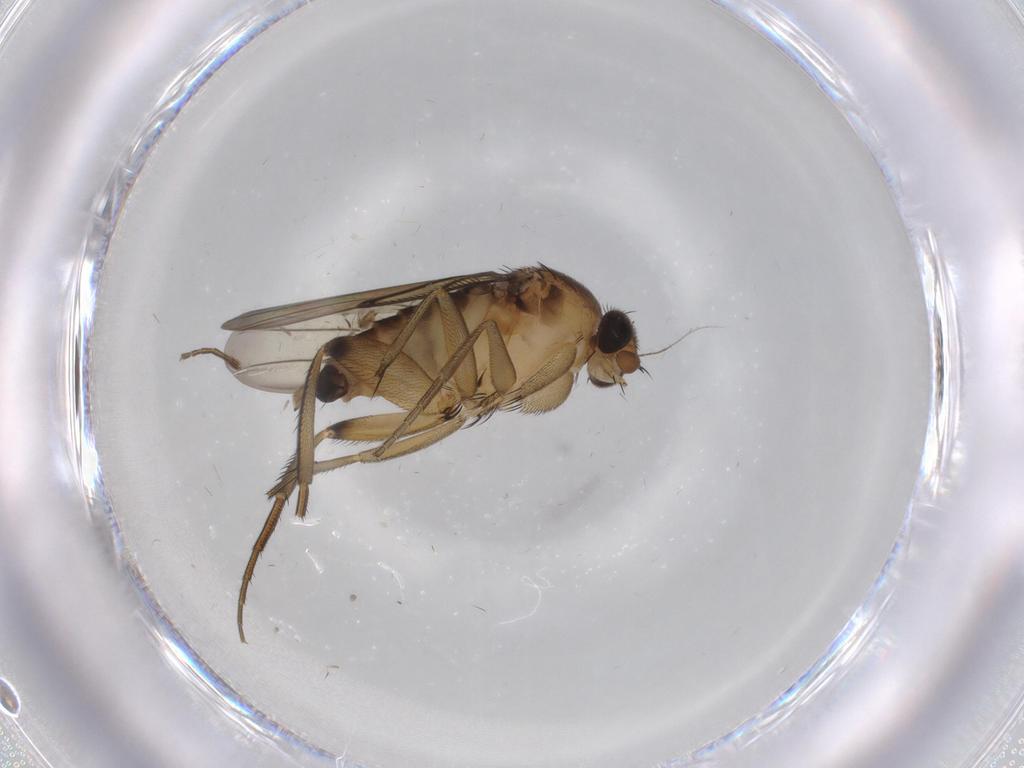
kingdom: Animalia
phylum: Arthropoda
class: Insecta
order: Diptera
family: Phoridae
